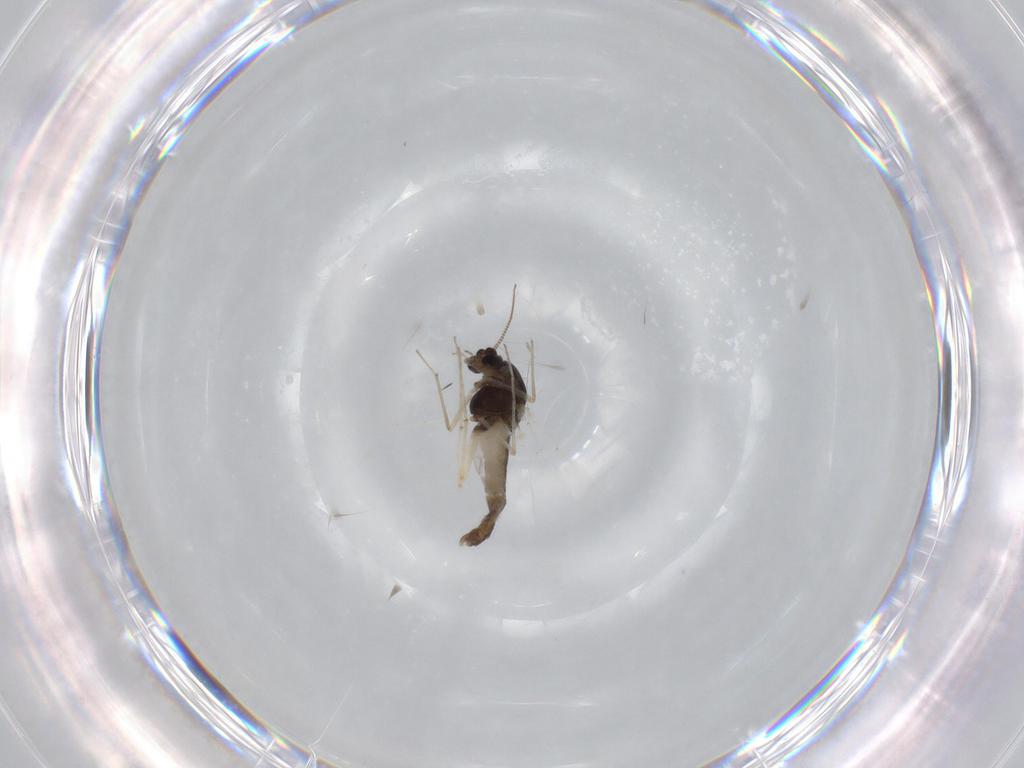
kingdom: Animalia
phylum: Arthropoda
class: Insecta
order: Diptera
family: Chironomidae
